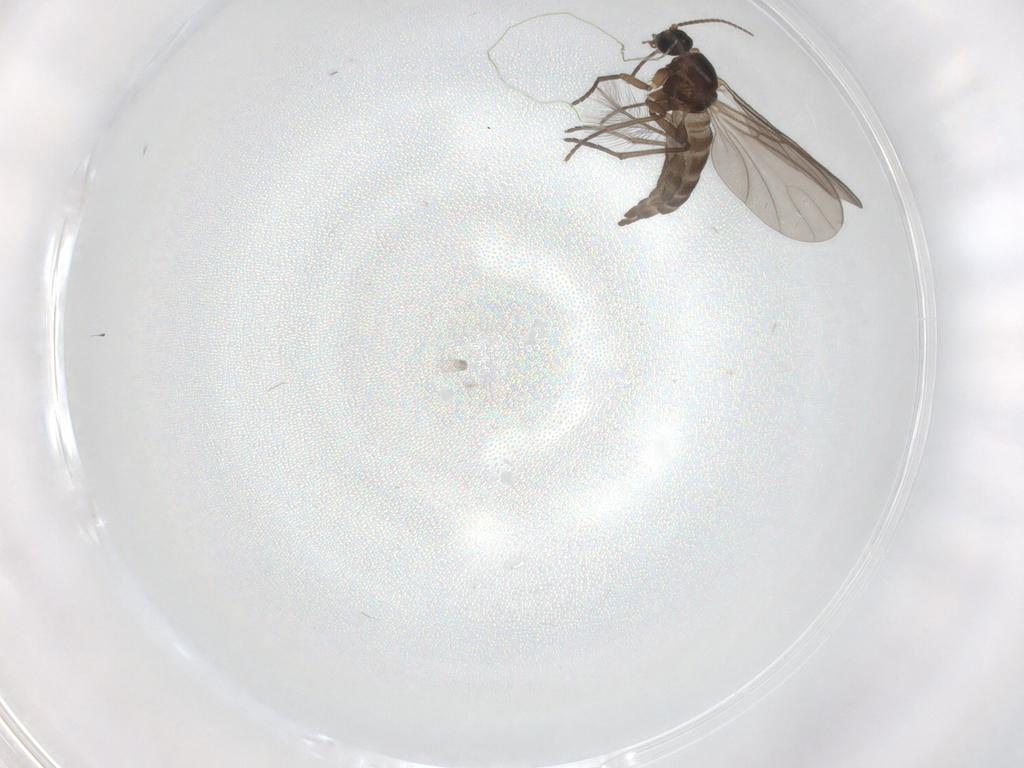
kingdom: Animalia
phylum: Arthropoda
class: Insecta
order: Diptera
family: Sciaridae
